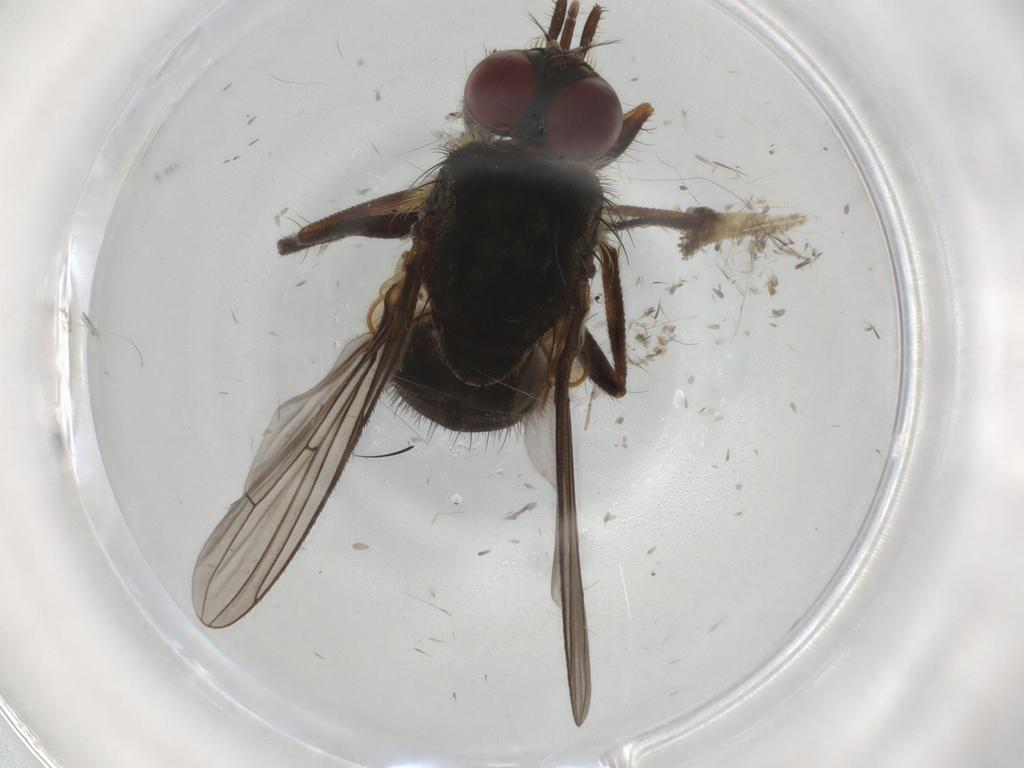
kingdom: Animalia
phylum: Arthropoda
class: Insecta
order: Diptera
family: Ceratopogonidae
